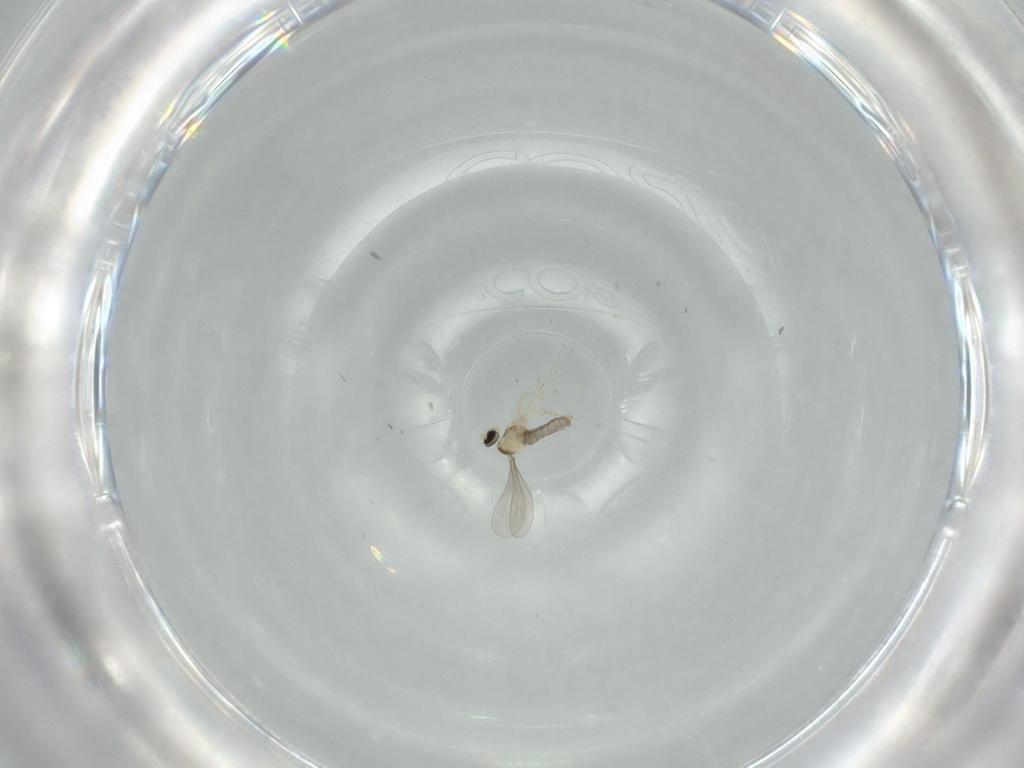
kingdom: Animalia
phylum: Arthropoda
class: Insecta
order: Diptera
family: Sciaridae
